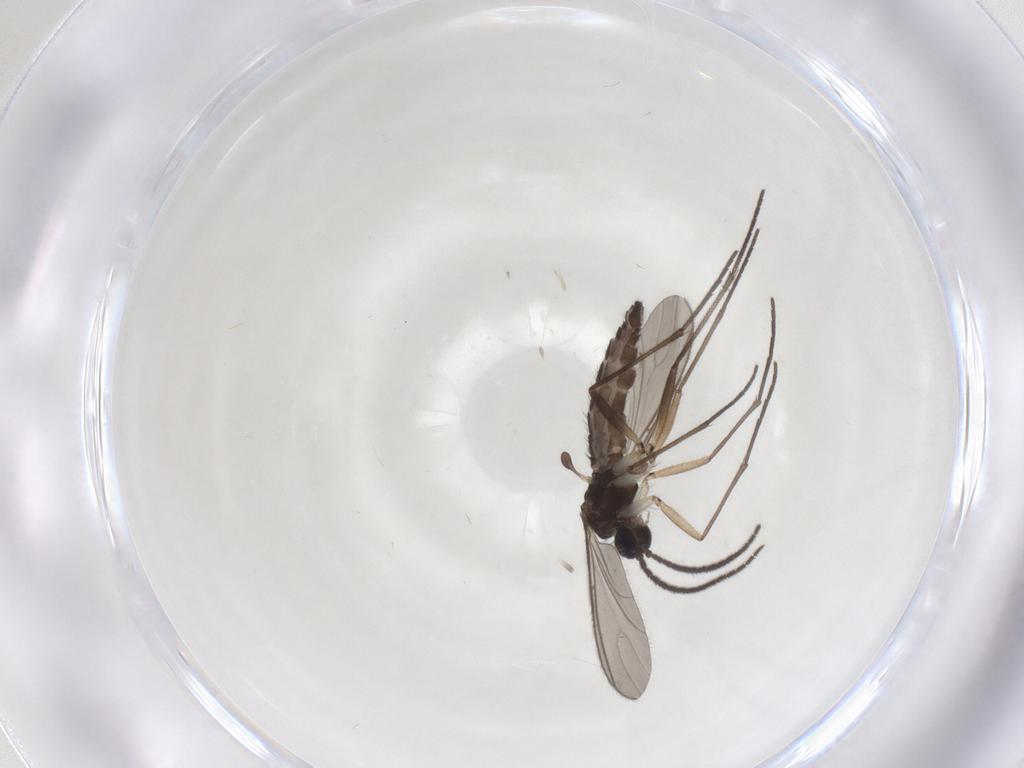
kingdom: Animalia
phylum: Arthropoda
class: Insecta
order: Diptera
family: Sciaridae
